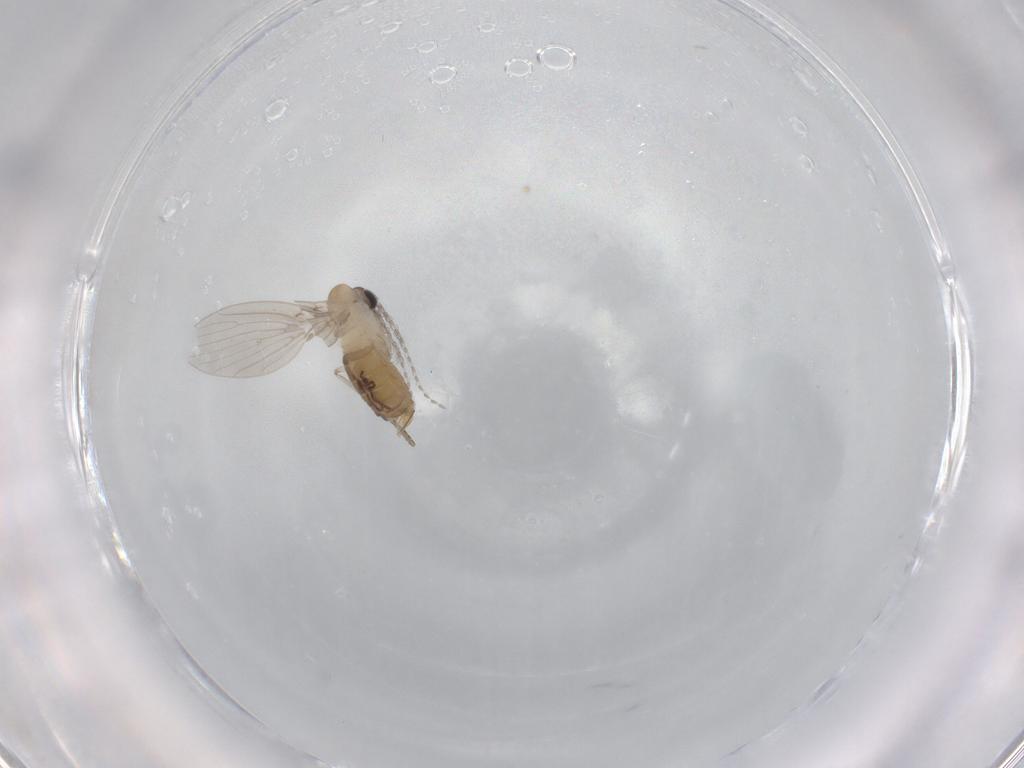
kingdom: Animalia
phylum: Arthropoda
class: Insecta
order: Diptera
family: Psychodidae
